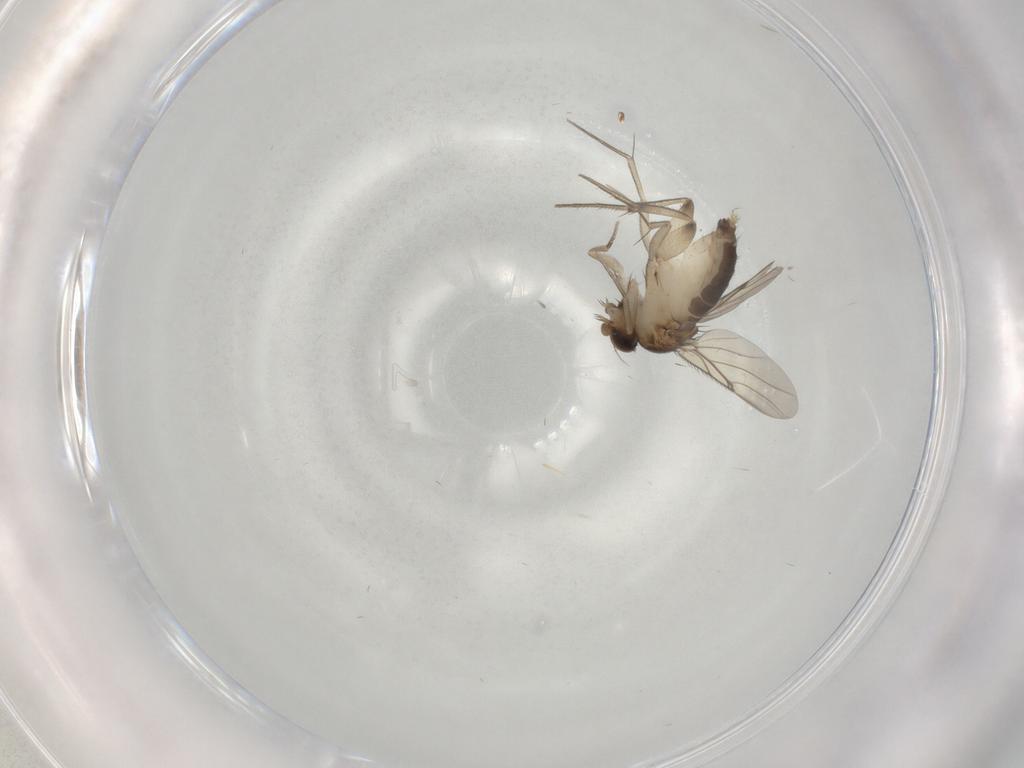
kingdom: Animalia
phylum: Arthropoda
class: Insecta
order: Diptera
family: Phoridae
